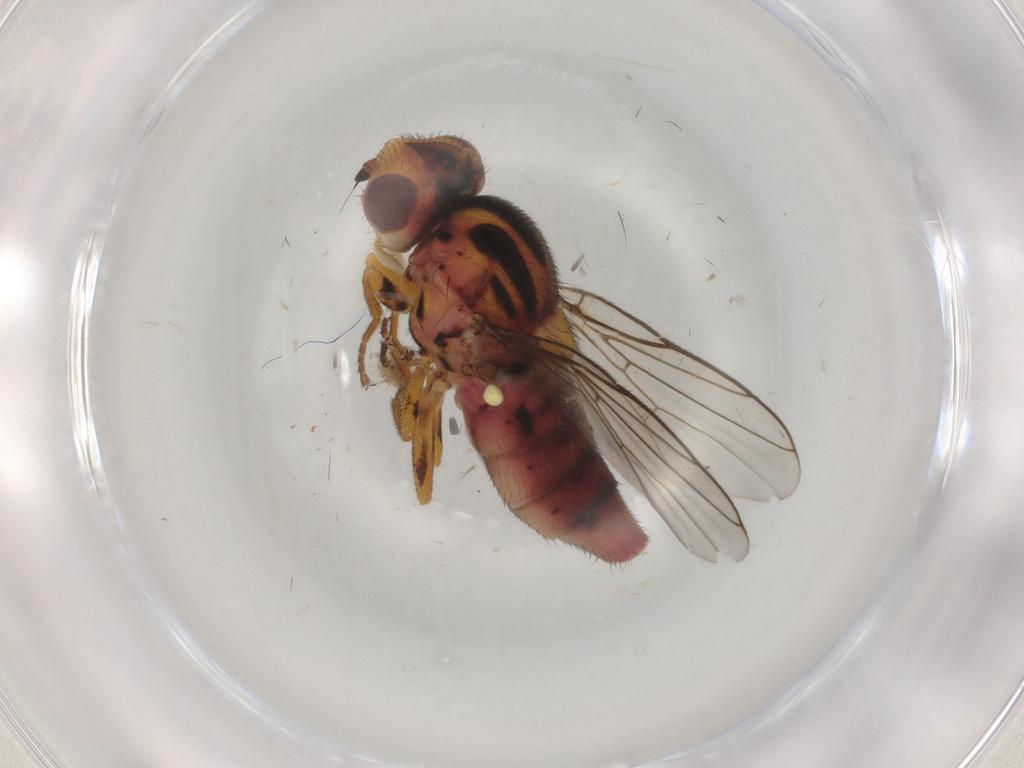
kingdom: Animalia
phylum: Arthropoda
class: Insecta
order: Diptera
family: Chloropidae
